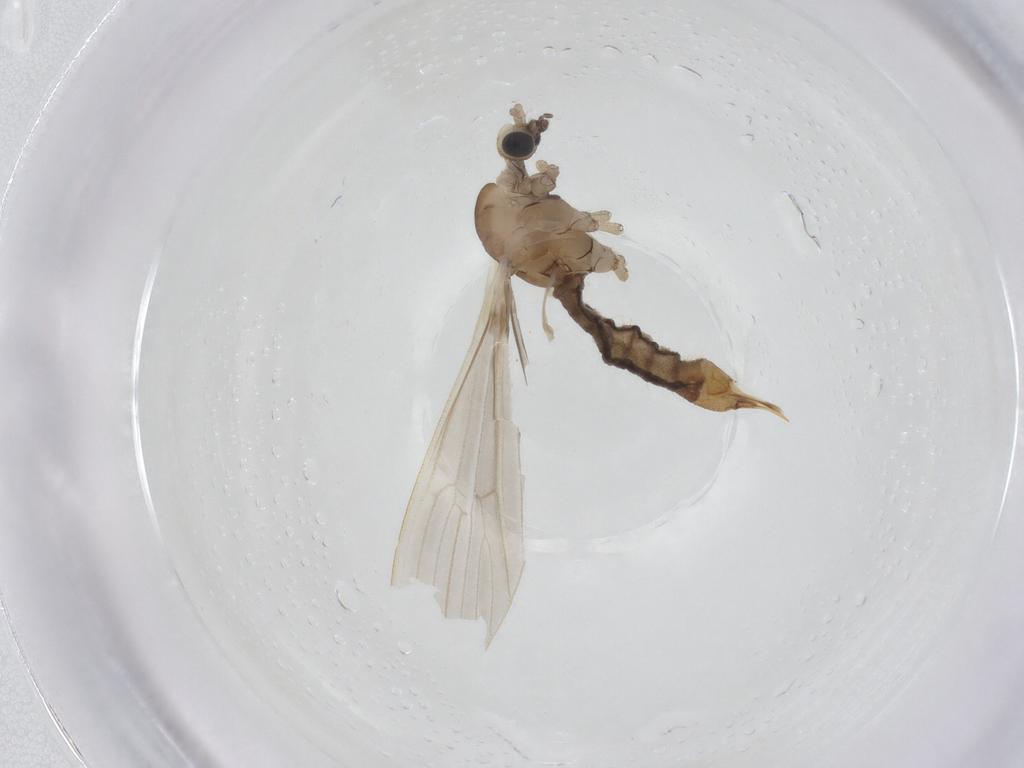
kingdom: Animalia
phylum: Arthropoda
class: Insecta
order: Diptera
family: Limoniidae
